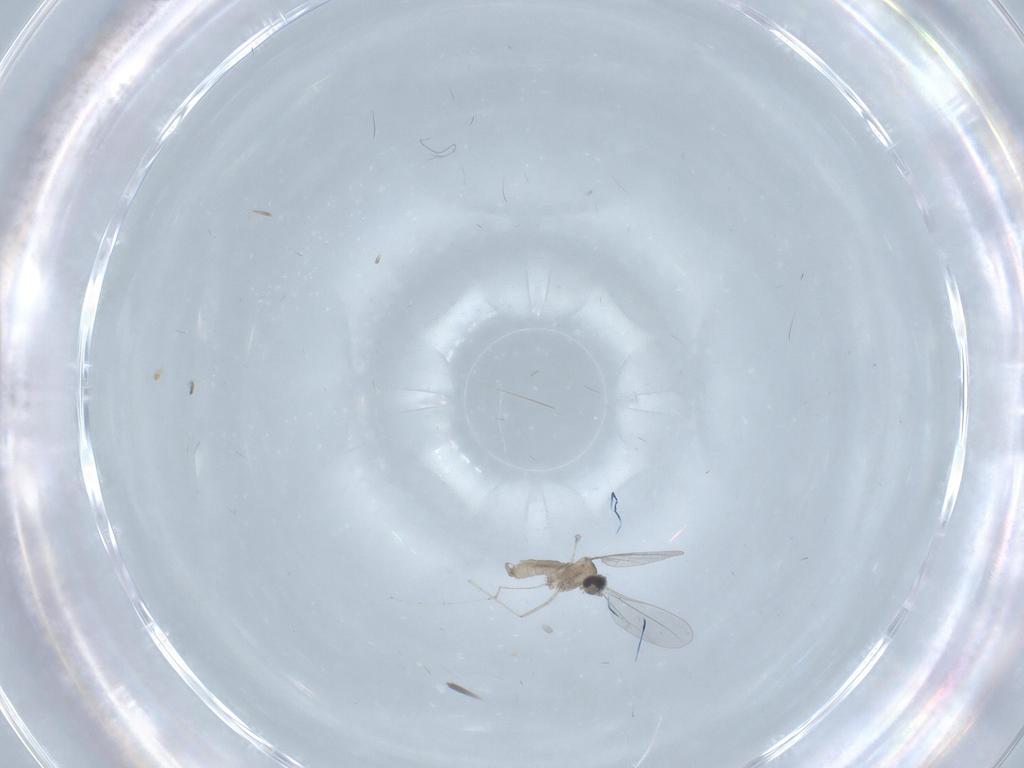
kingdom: Animalia
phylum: Arthropoda
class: Insecta
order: Diptera
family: Cecidomyiidae
